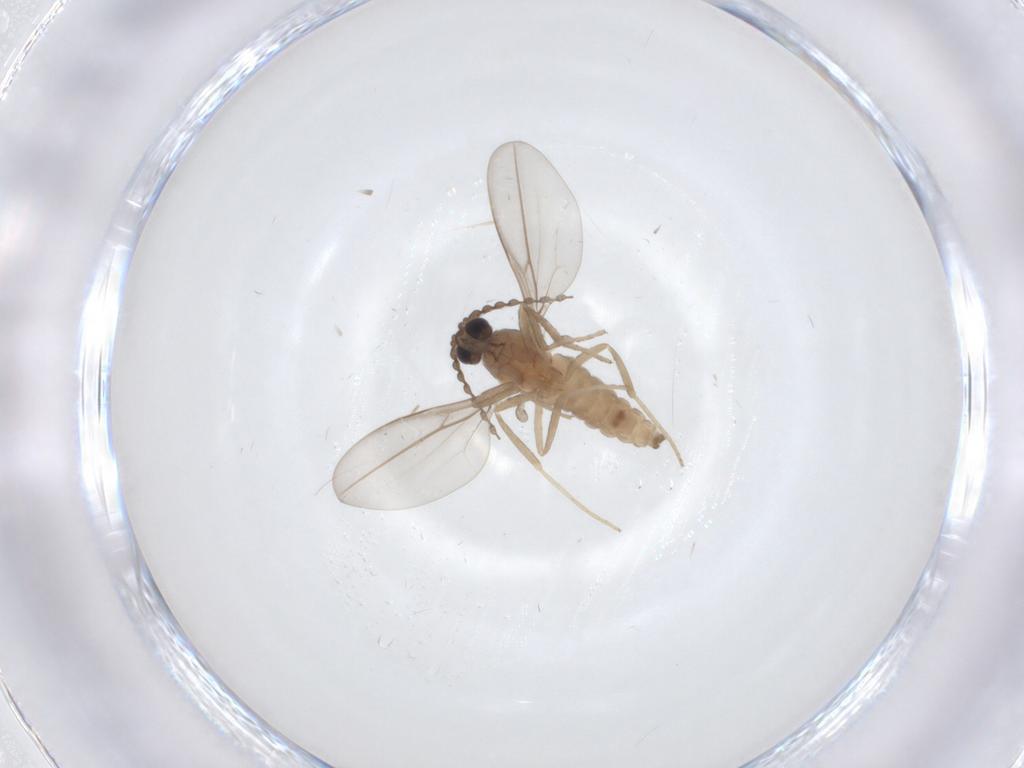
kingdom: Animalia
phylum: Arthropoda
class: Insecta
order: Diptera
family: Cecidomyiidae
